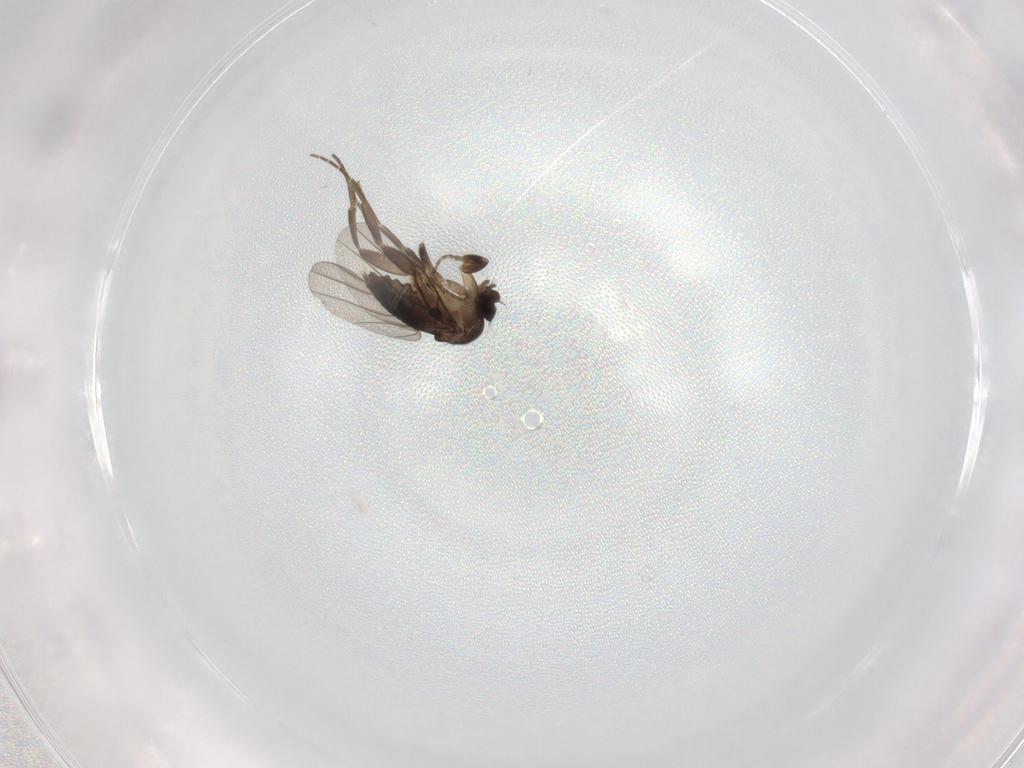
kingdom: Animalia
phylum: Arthropoda
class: Insecta
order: Diptera
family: Phoridae
